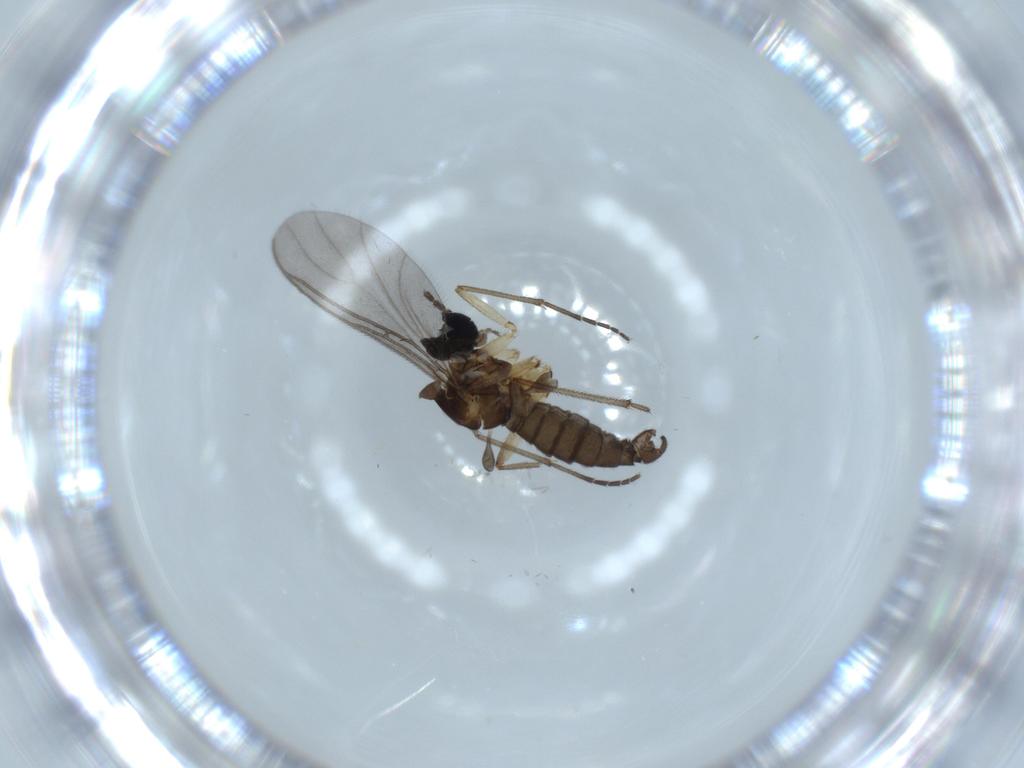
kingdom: Animalia
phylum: Arthropoda
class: Insecta
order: Diptera
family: Sciaridae
